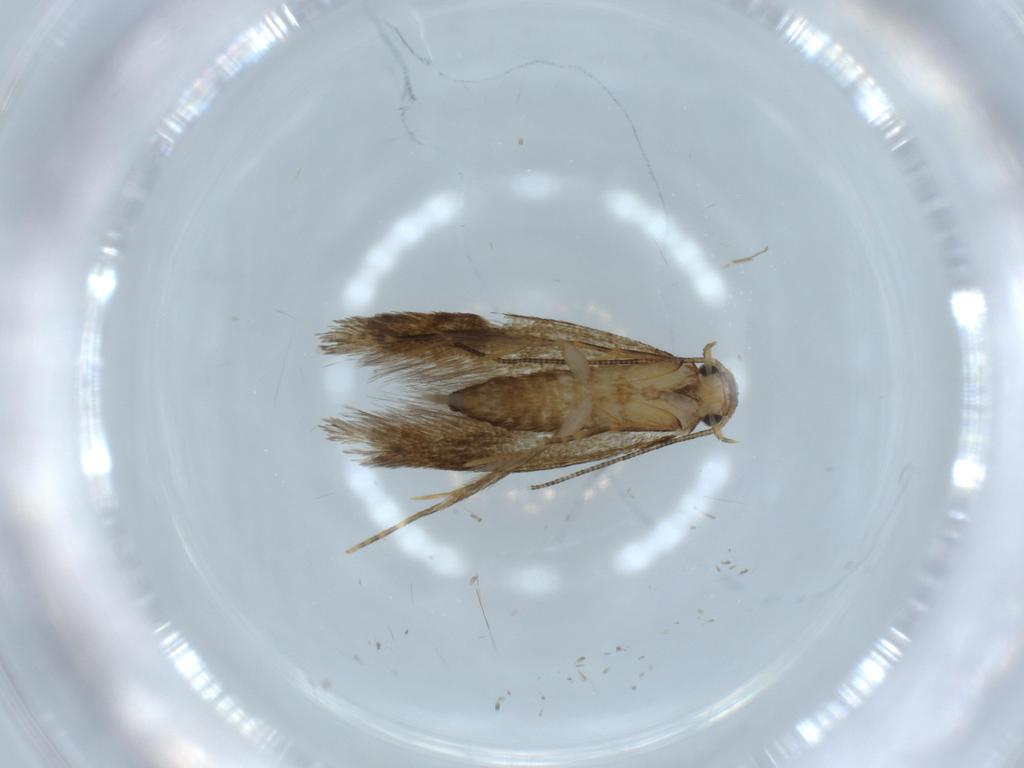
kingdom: Animalia
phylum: Arthropoda
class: Insecta
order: Lepidoptera
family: Tineidae
